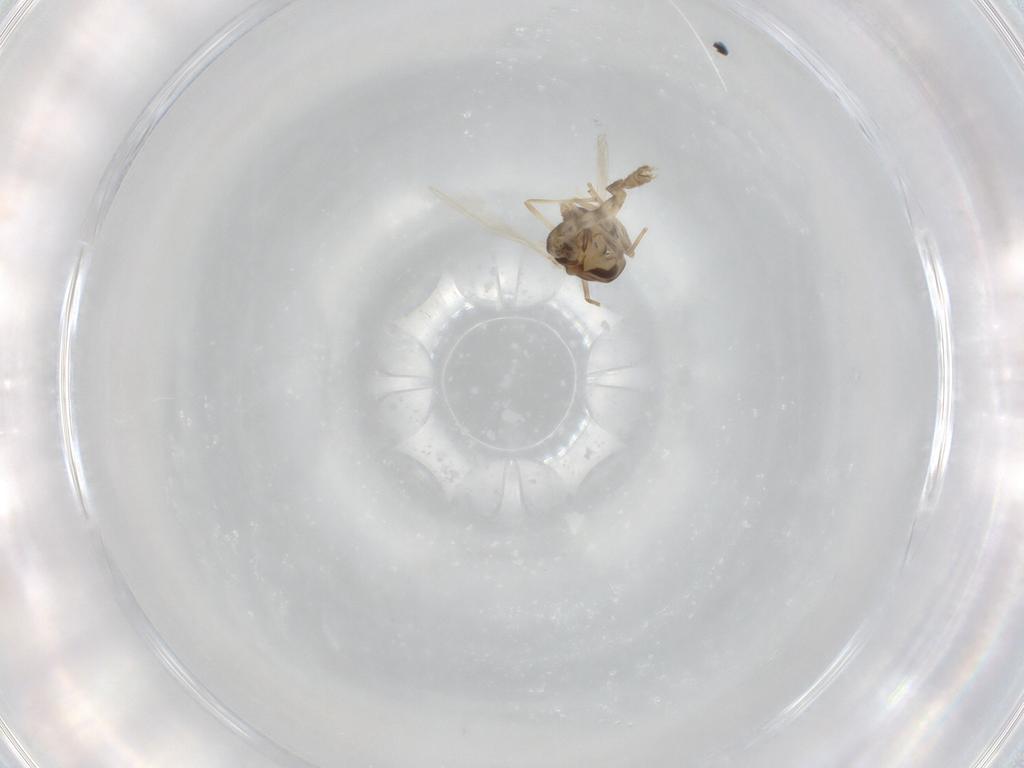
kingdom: Animalia
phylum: Arthropoda
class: Insecta
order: Diptera
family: Chironomidae
